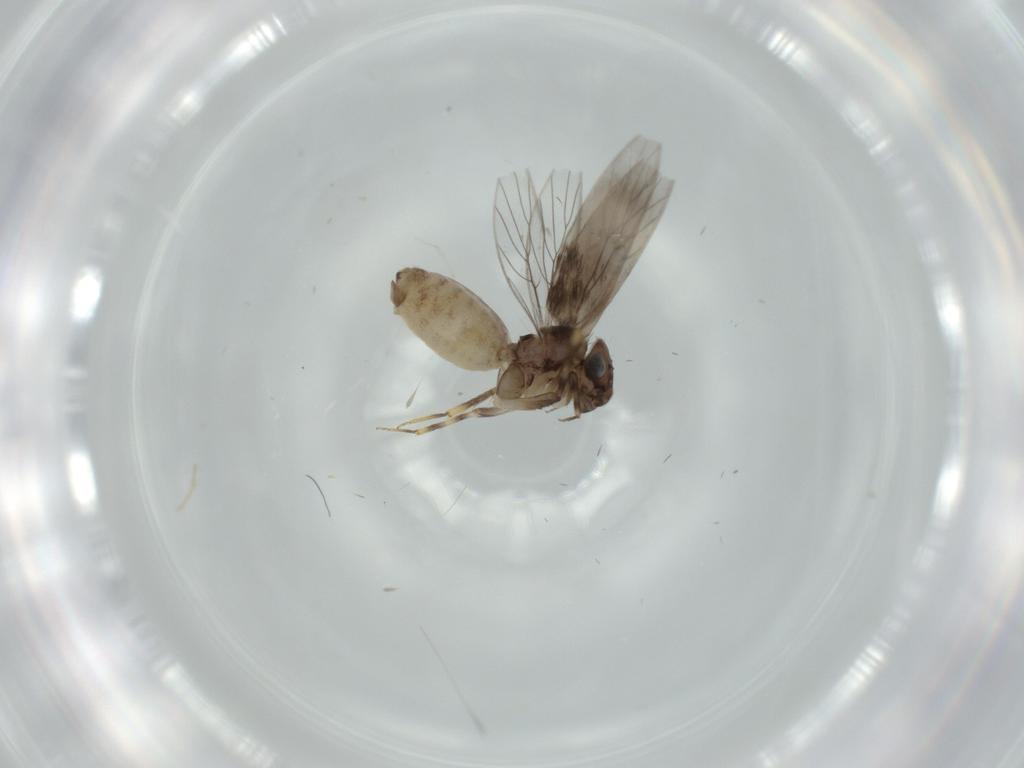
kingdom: Animalia
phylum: Arthropoda
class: Insecta
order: Psocodea
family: Lepidopsocidae
